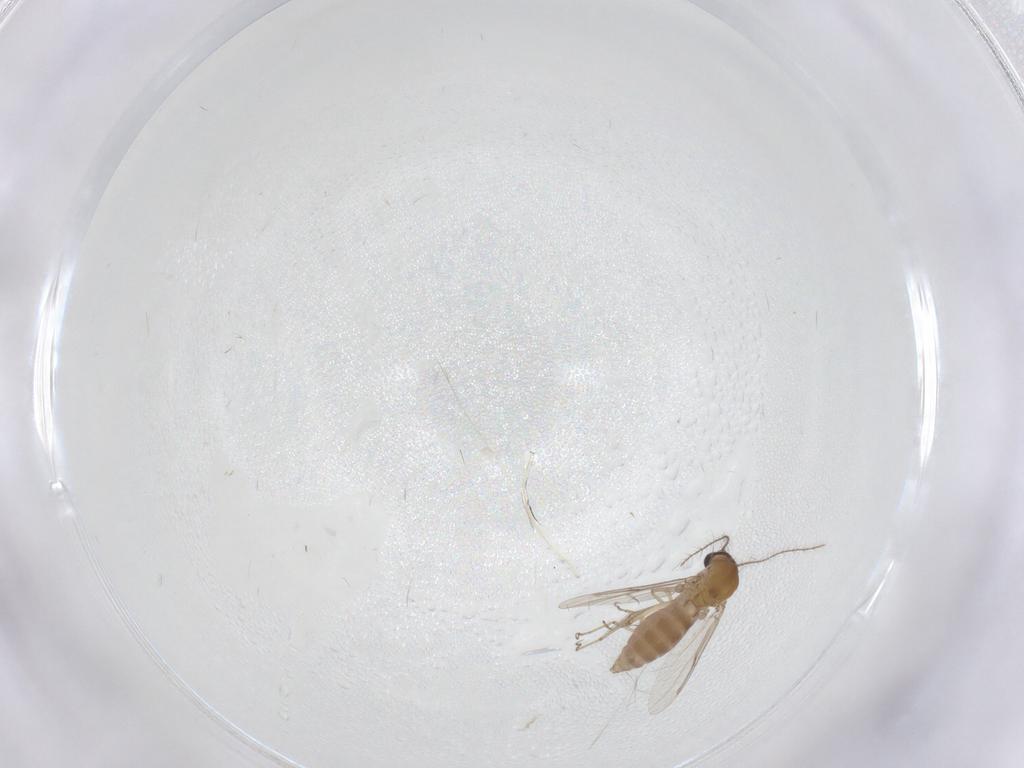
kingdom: Animalia
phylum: Arthropoda
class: Insecta
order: Diptera
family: Ceratopogonidae
